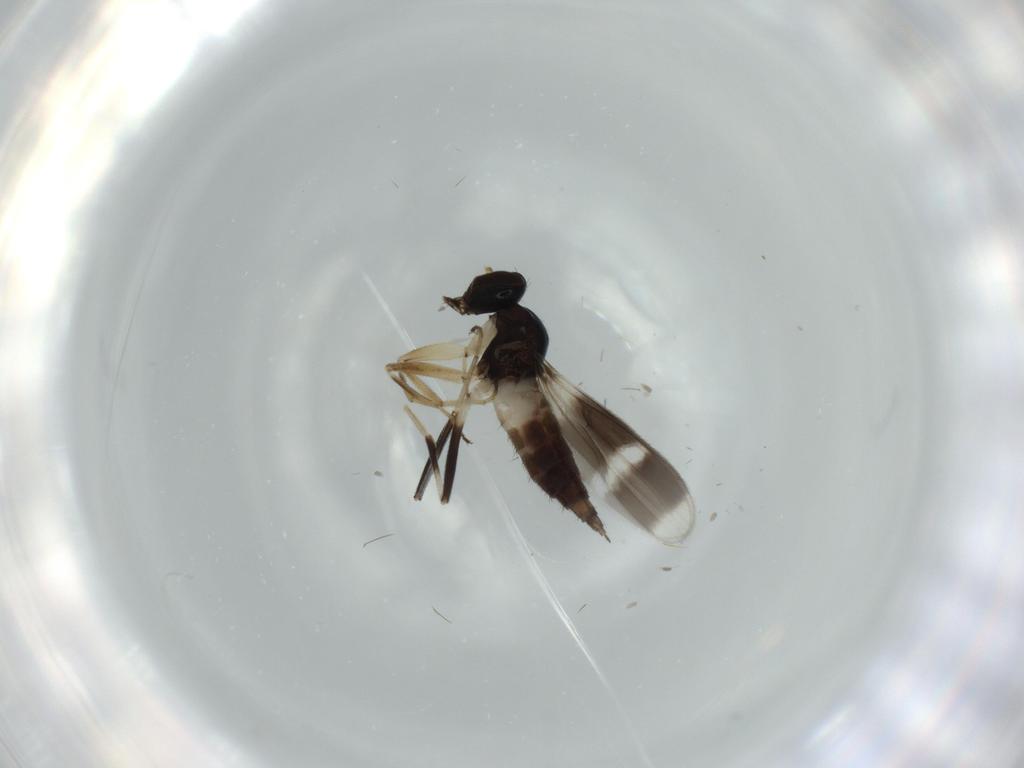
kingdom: Animalia
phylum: Arthropoda
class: Insecta
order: Diptera
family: Hybotidae
